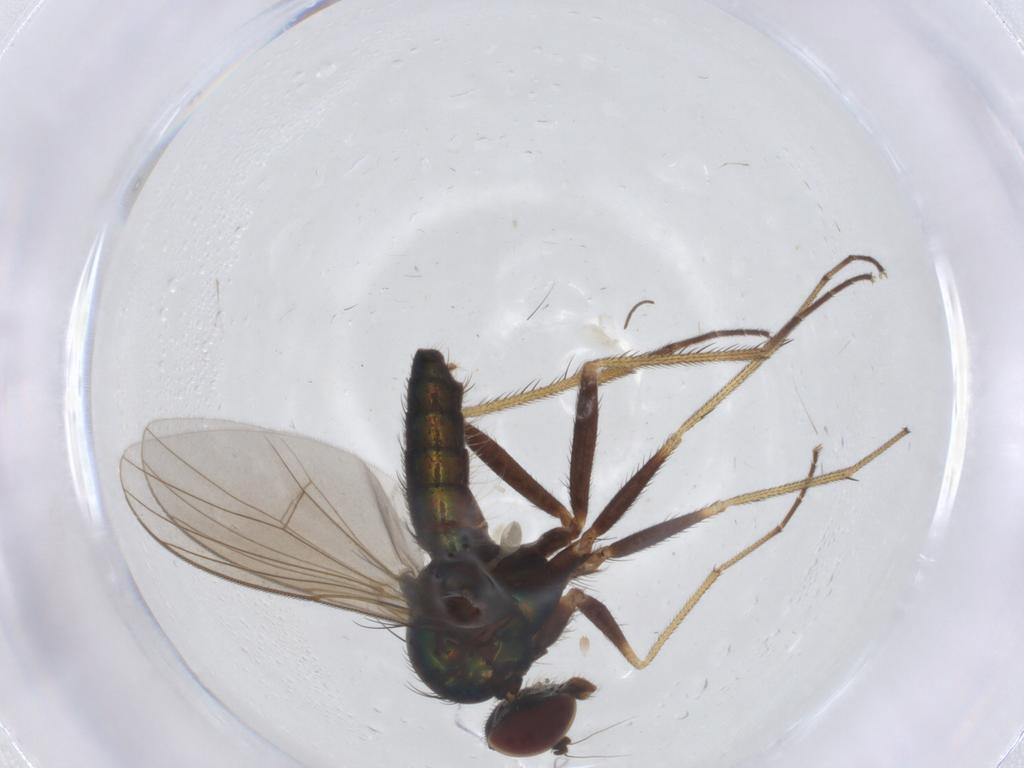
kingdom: Animalia
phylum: Arthropoda
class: Insecta
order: Diptera
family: Dolichopodidae
